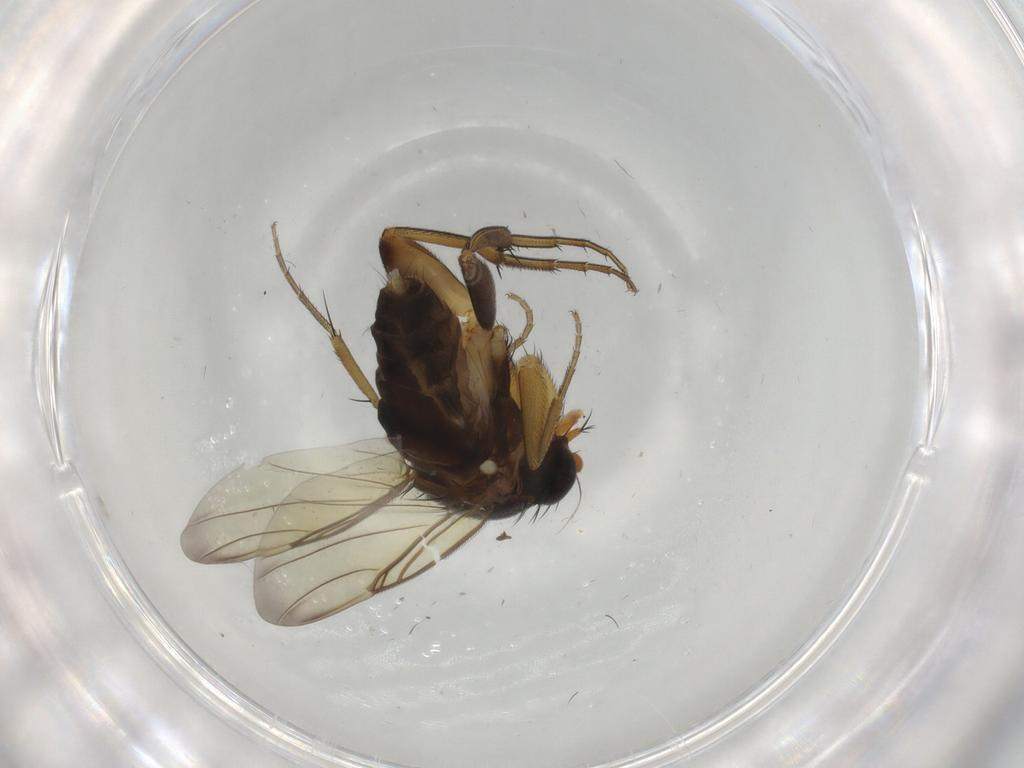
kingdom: Animalia
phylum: Arthropoda
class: Insecta
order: Diptera
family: Phoridae
